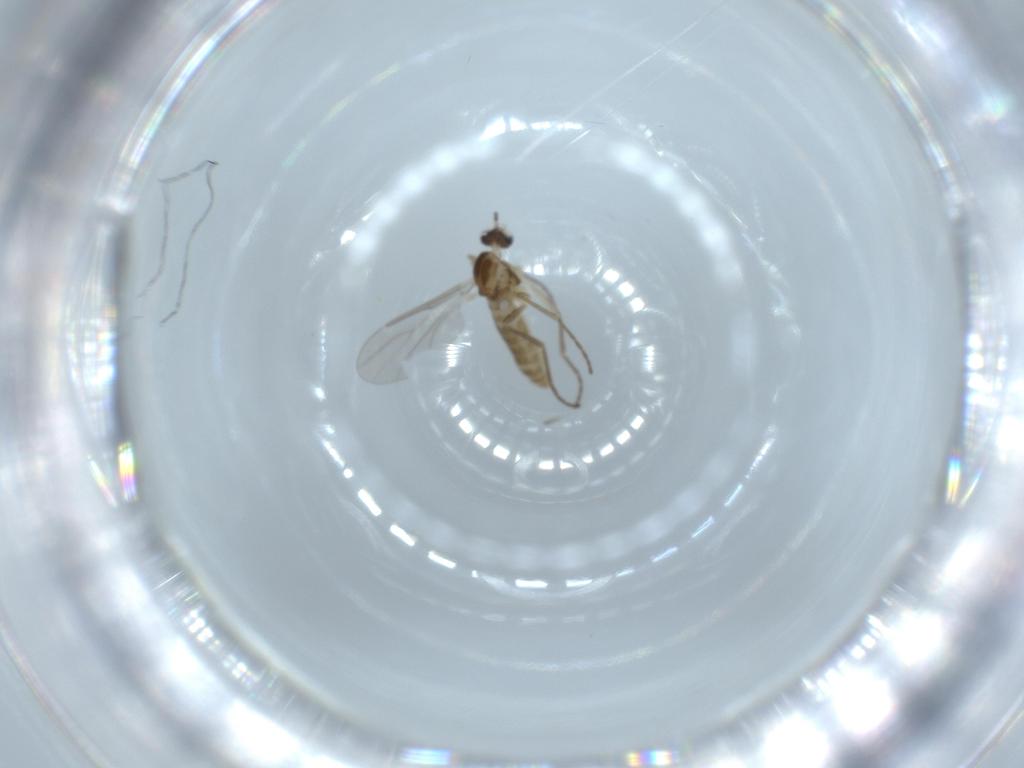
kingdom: Animalia
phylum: Arthropoda
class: Insecta
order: Diptera
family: Cecidomyiidae
